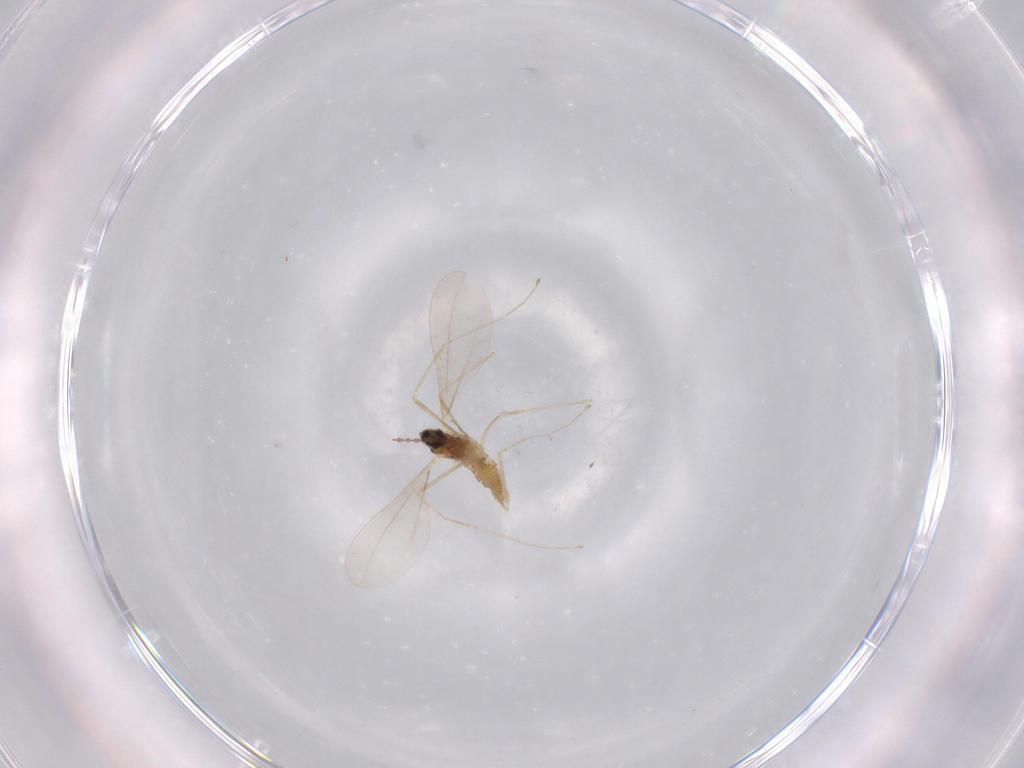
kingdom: Animalia
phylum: Arthropoda
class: Insecta
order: Diptera
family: Cecidomyiidae
